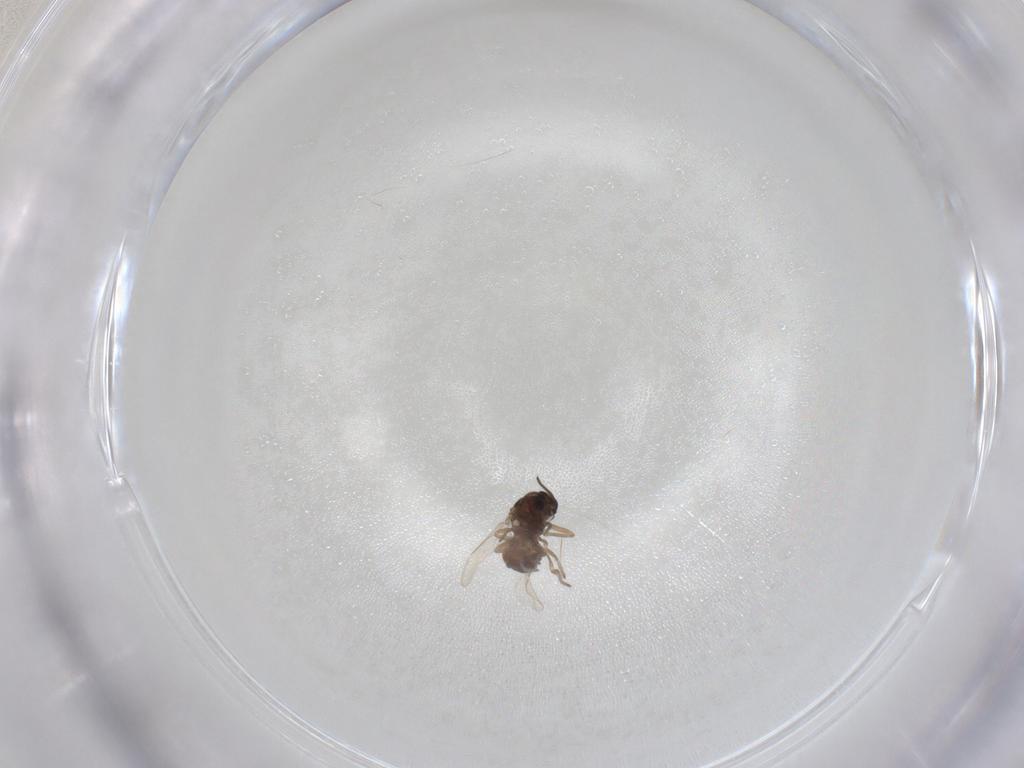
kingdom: Animalia
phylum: Arthropoda
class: Insecta
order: Diptera
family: Ceratopogonidae
